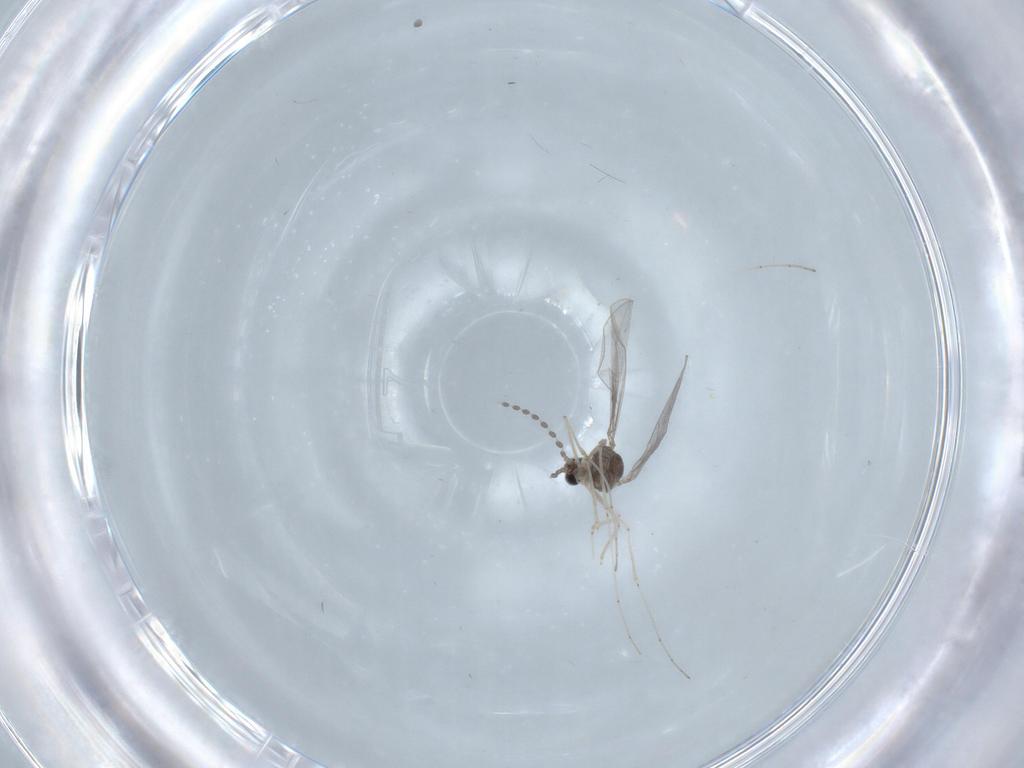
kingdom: Animalia
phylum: Arthropoda
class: Insecta
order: Diptera
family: Cecidomyiidae
